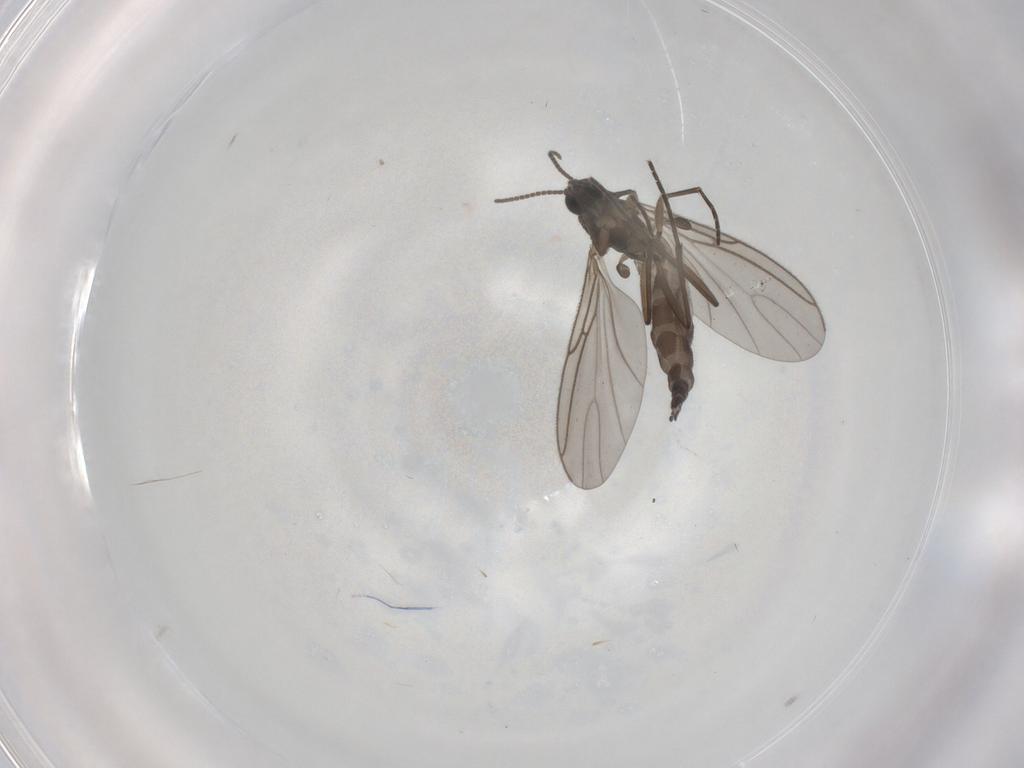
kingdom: Animalia
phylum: Arthropoda
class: Insecta
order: Diptera
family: Sciaridae
